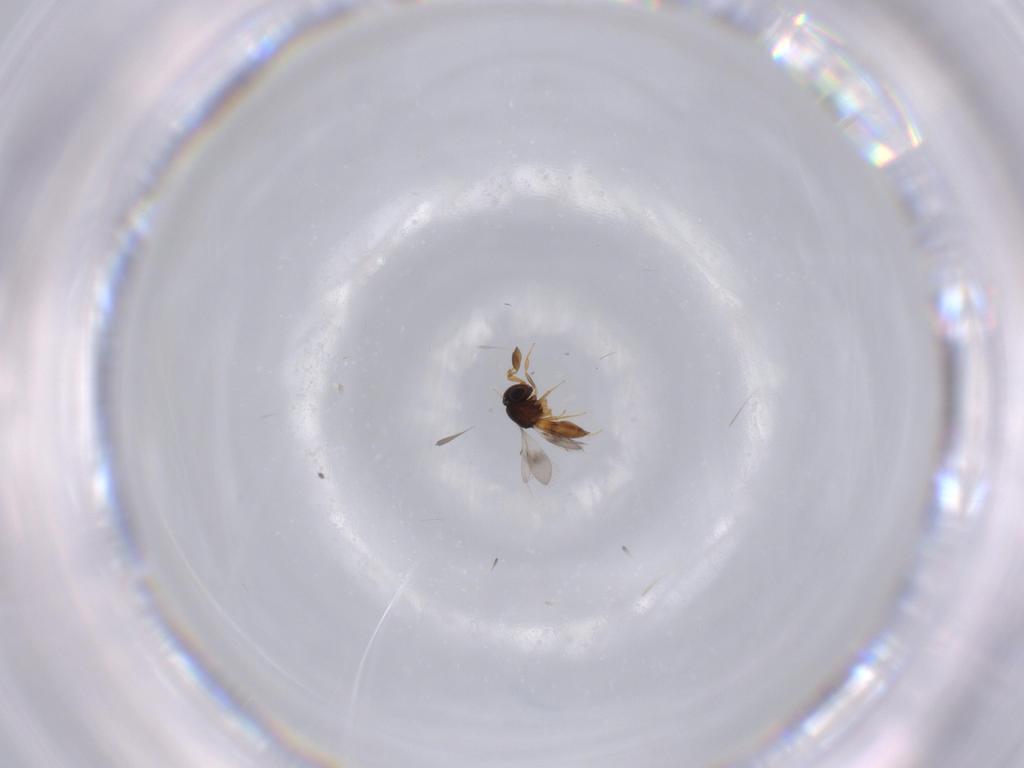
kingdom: Animalia
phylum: Arthropoda
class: Insecta
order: Hymenoptera
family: Scelionidae
